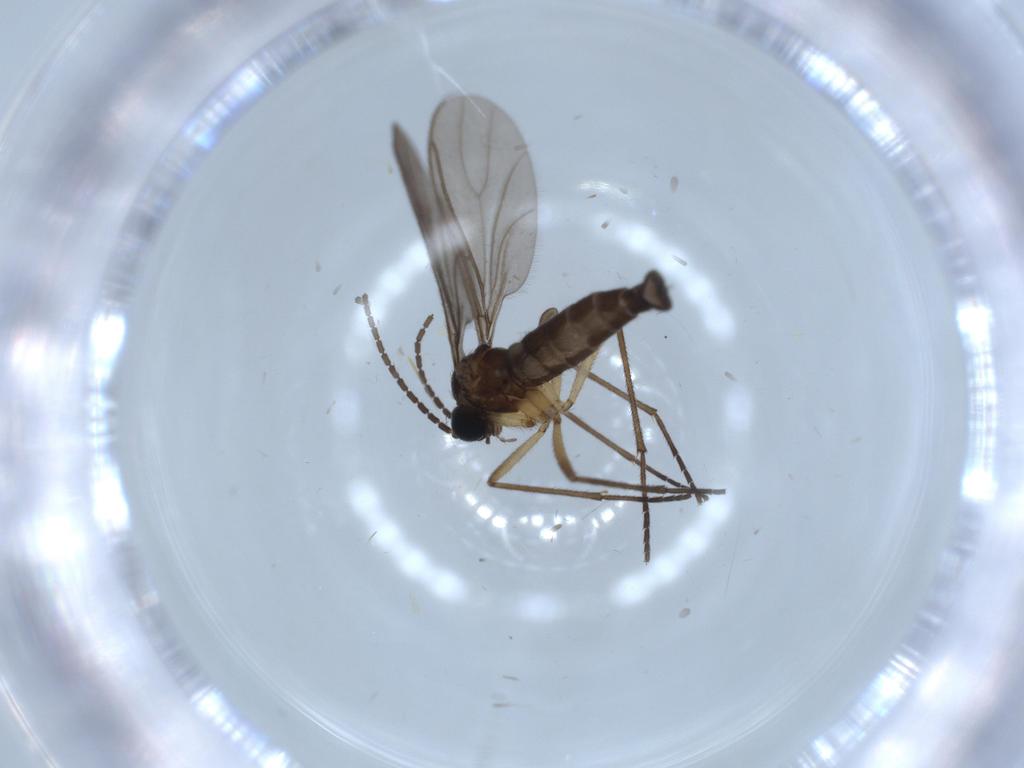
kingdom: Animalia
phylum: Arthropoda
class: Insecta
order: Diptera
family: Sciaridae
